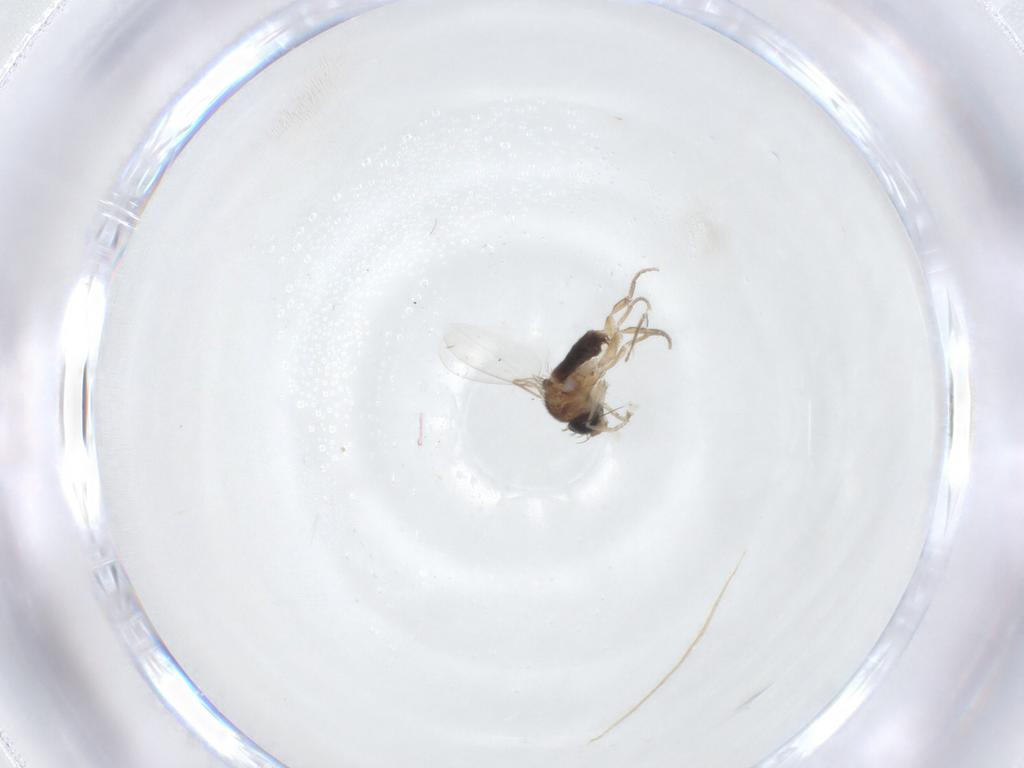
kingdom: Animalia
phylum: Arthropoda
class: Insecta
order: Diptera
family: Ceratopogonidae
